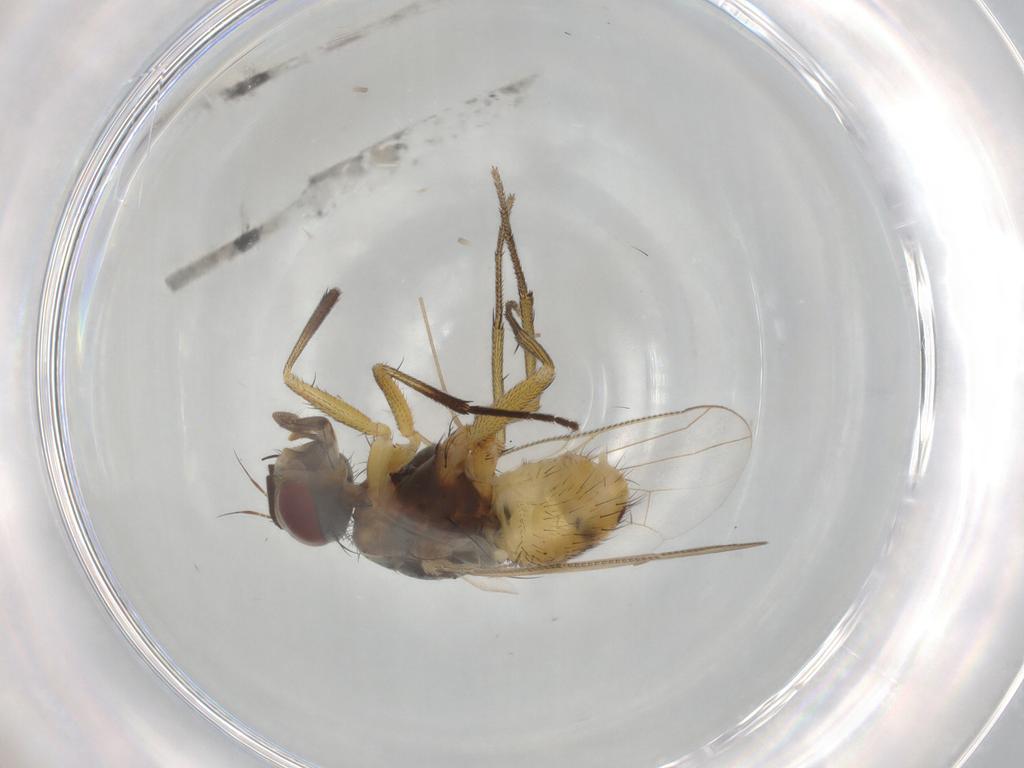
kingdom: Animalia
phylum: Arthropoda
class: Insecta
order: Diptera
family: Muscidae
